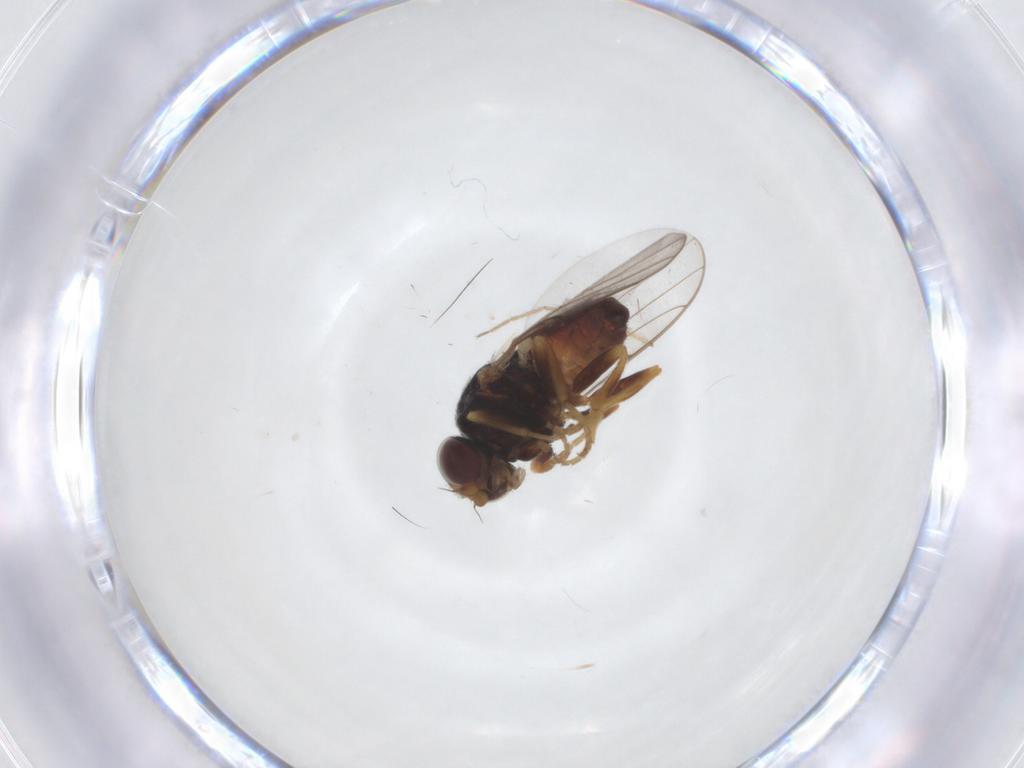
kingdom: Animalia
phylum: Arthropoda
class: Insecta
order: Diptera
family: Chloropidae
